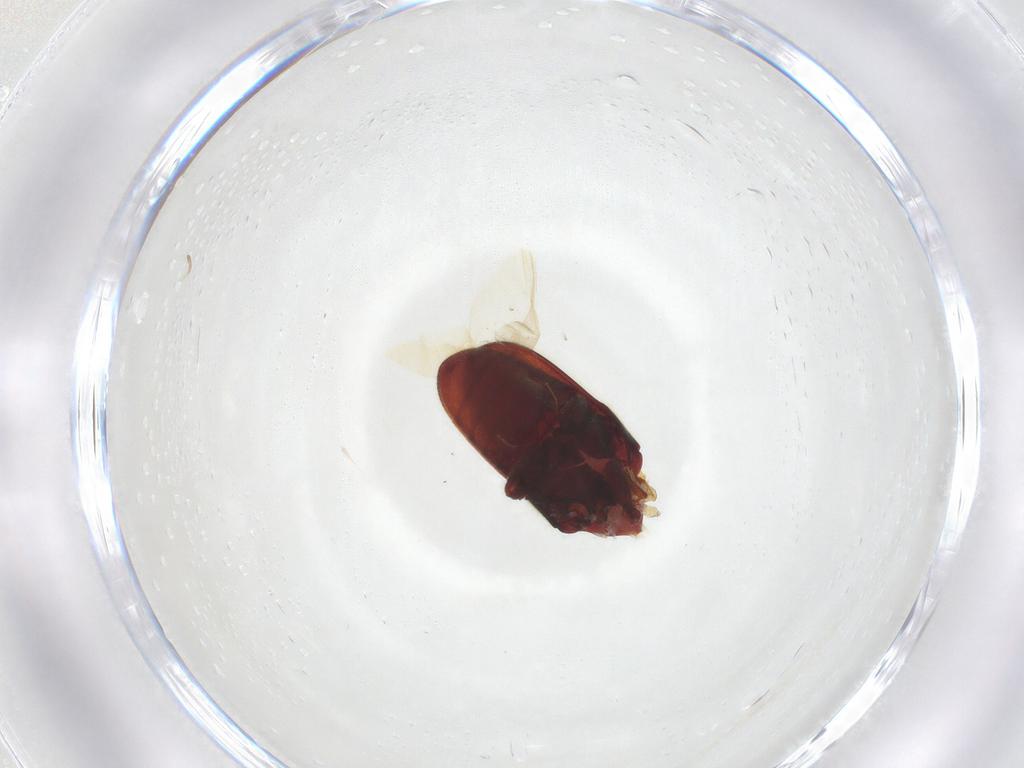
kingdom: Animalia
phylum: Arthropoda
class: Insecta
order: Coleoptera
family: Throscidae
